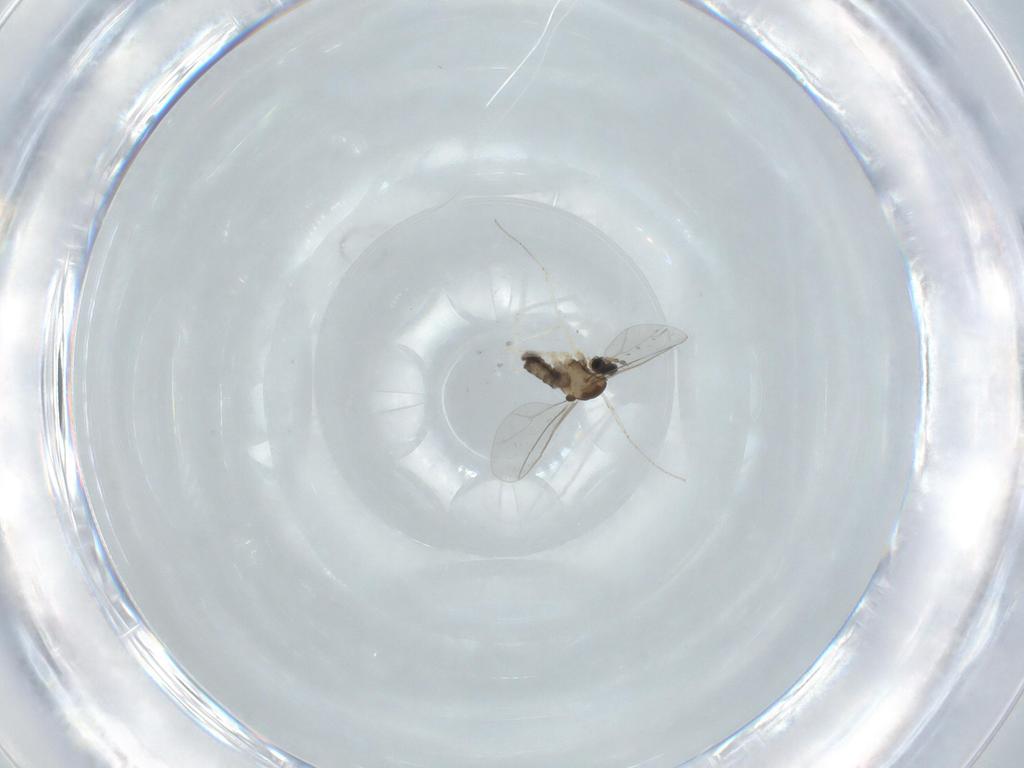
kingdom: Animalia
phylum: Arthropoda
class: Insecta
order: Diptera
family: Cecidomyiidae
